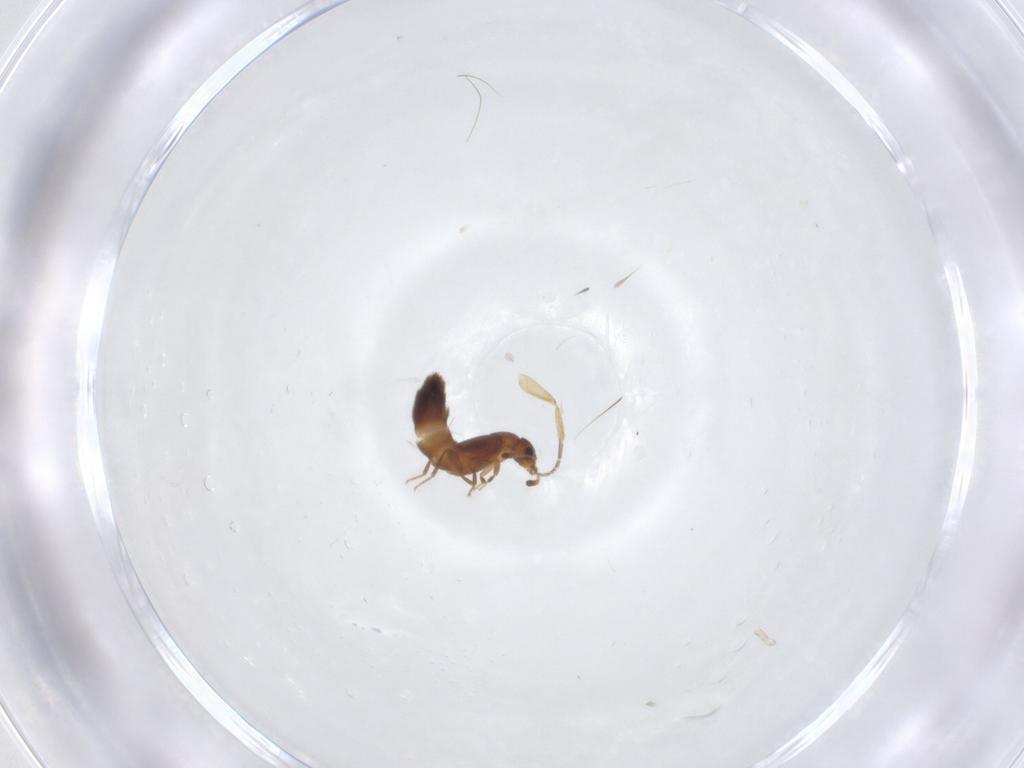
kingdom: Animalia
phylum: Arthropoda
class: Insecta
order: Coleoptera
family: Staphylinidae
